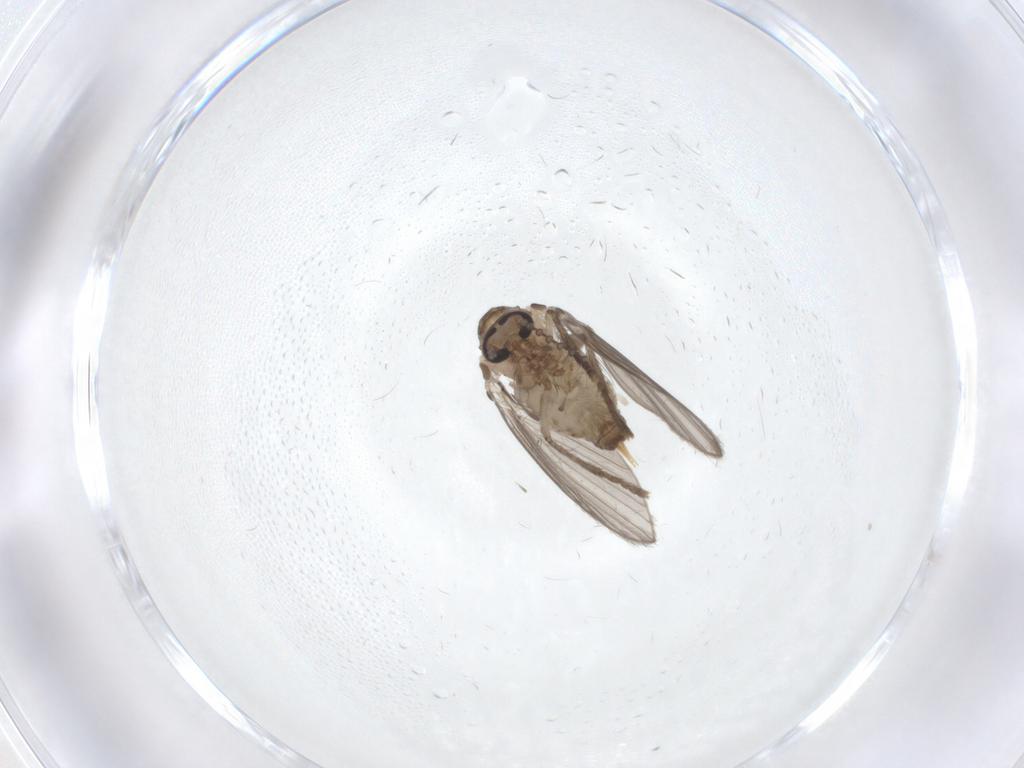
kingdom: Animalia
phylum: Arthropoda
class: Insecta
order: Diptera
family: Psychodidae
